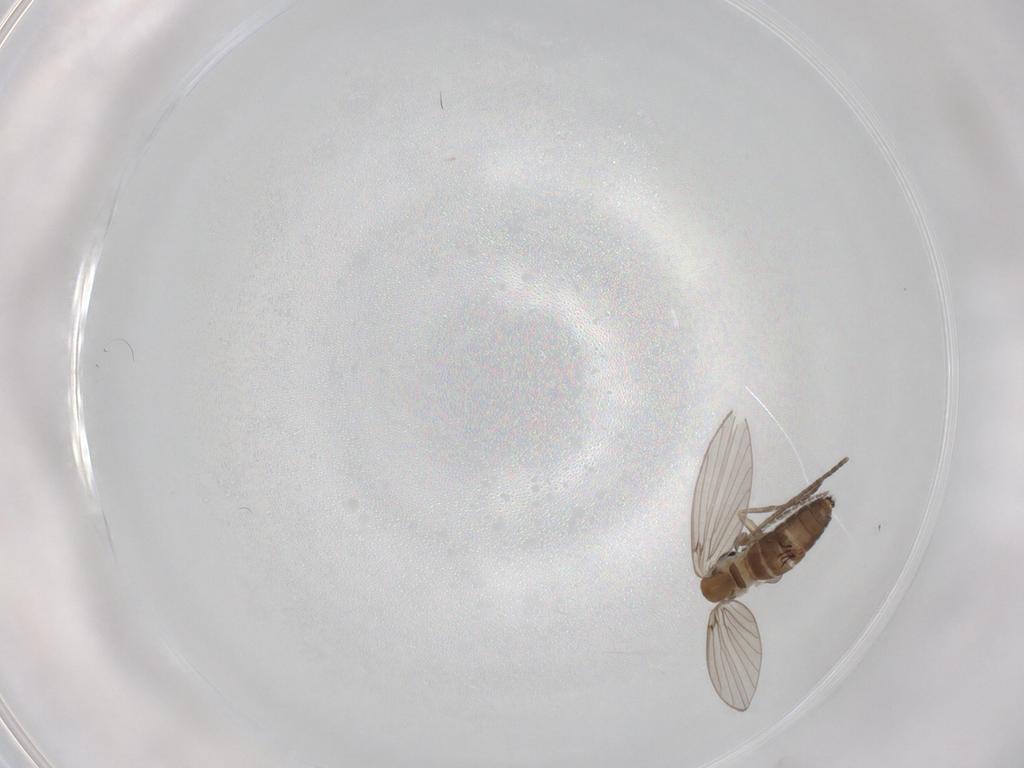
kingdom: Animalia
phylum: Arthropoda
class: Insecta
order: Diptera
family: Psychodidae
